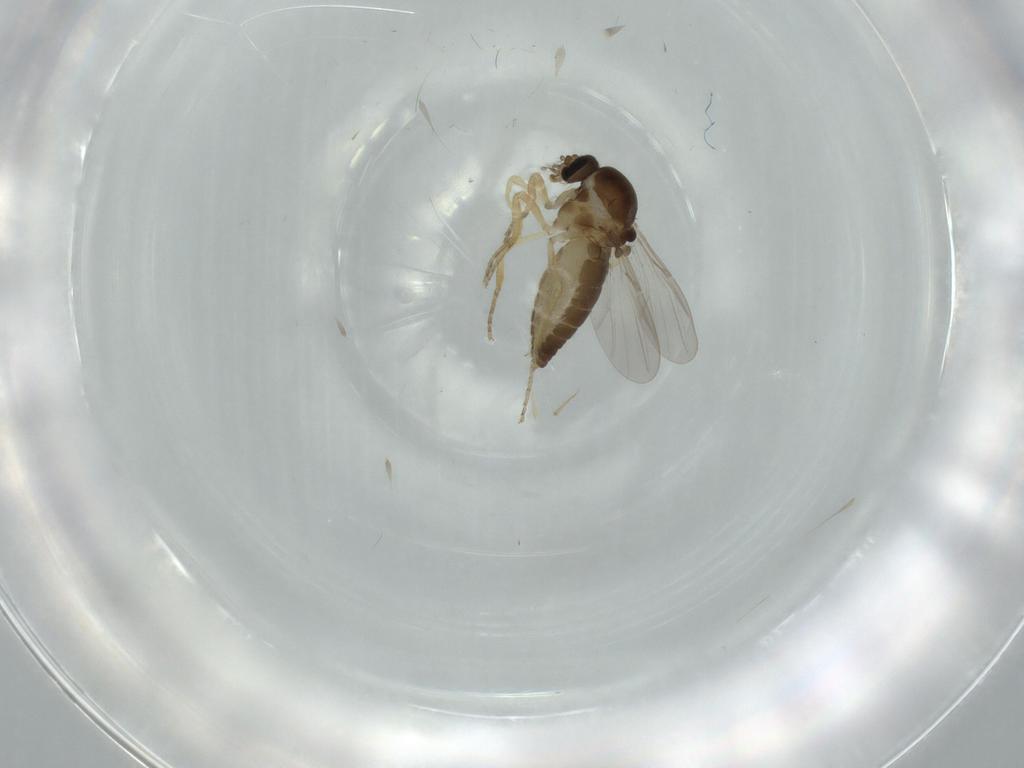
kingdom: Animalia
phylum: Arthropoda
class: Insecta
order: Diptera
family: Ceratopogonidae
